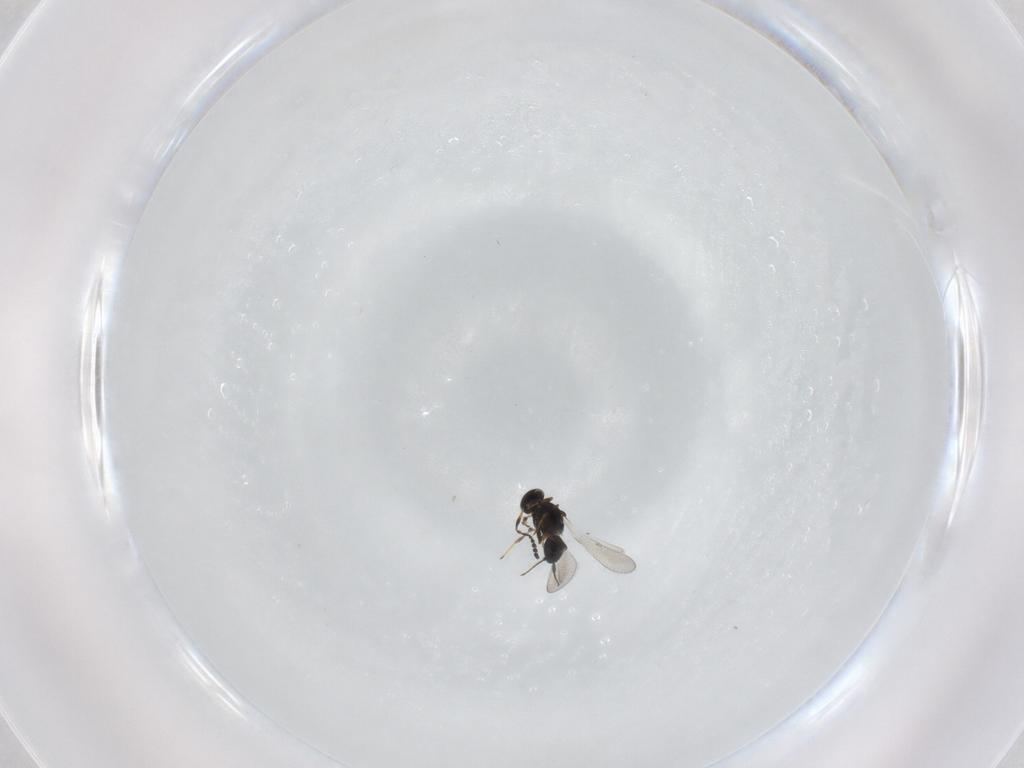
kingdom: Animalia
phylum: Arthropoda
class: Insecta
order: Hymenoptera
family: Platygastridae
